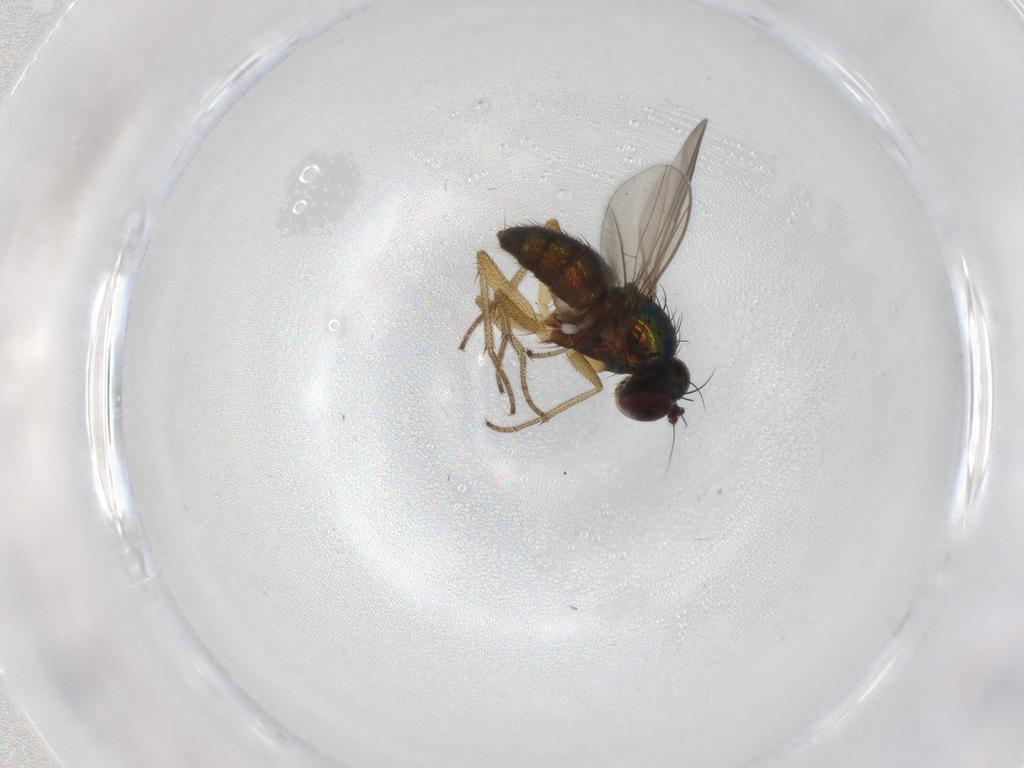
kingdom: Animalia
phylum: Arthropoda
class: Insecta
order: Diptera
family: Dolichopodidae
